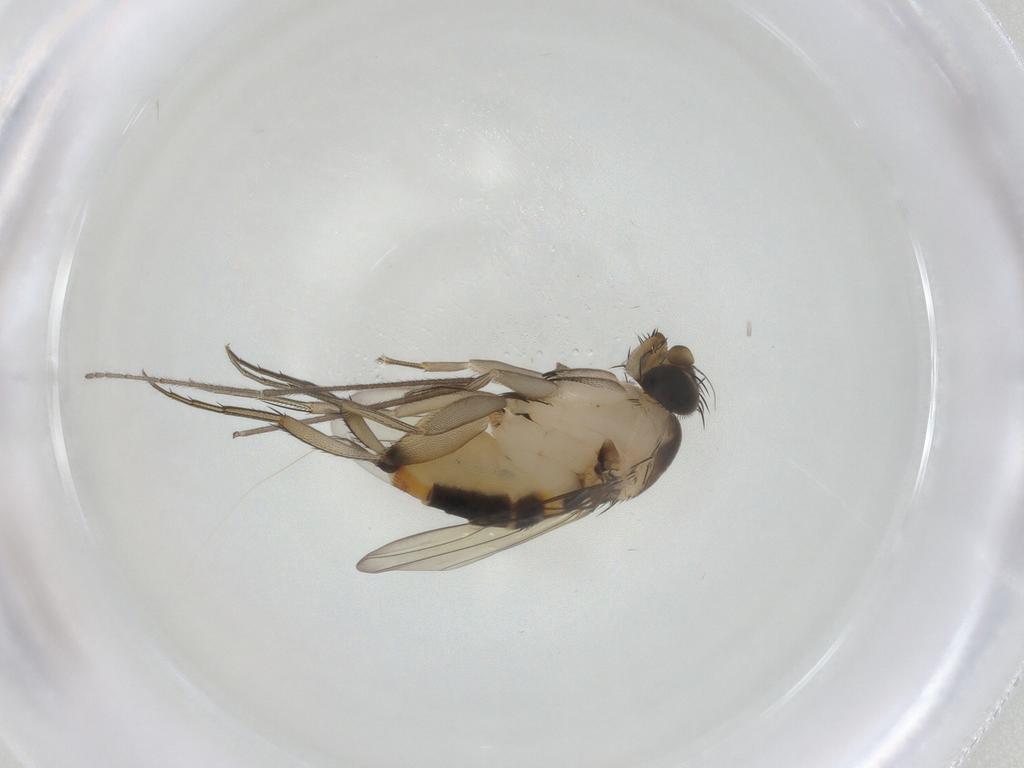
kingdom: Animalia
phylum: Arthropoda
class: Insecta
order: Diptera
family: Phoridae
